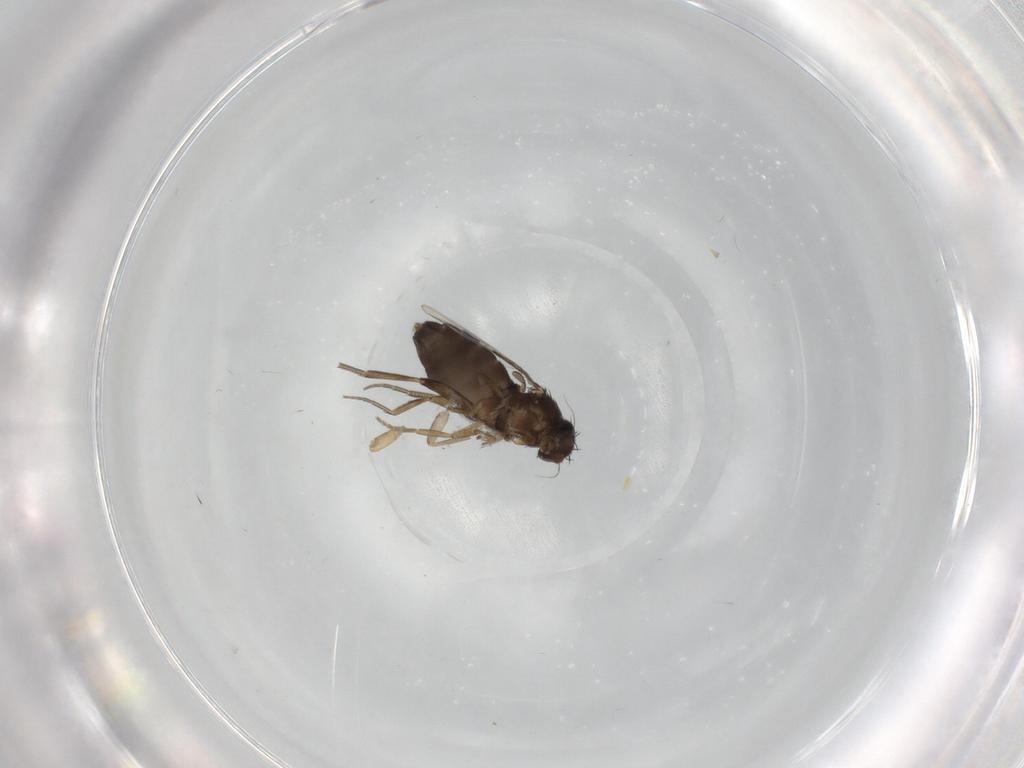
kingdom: Animalia
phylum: Arthropoda
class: Insecta
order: Diptera
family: Phoridae
